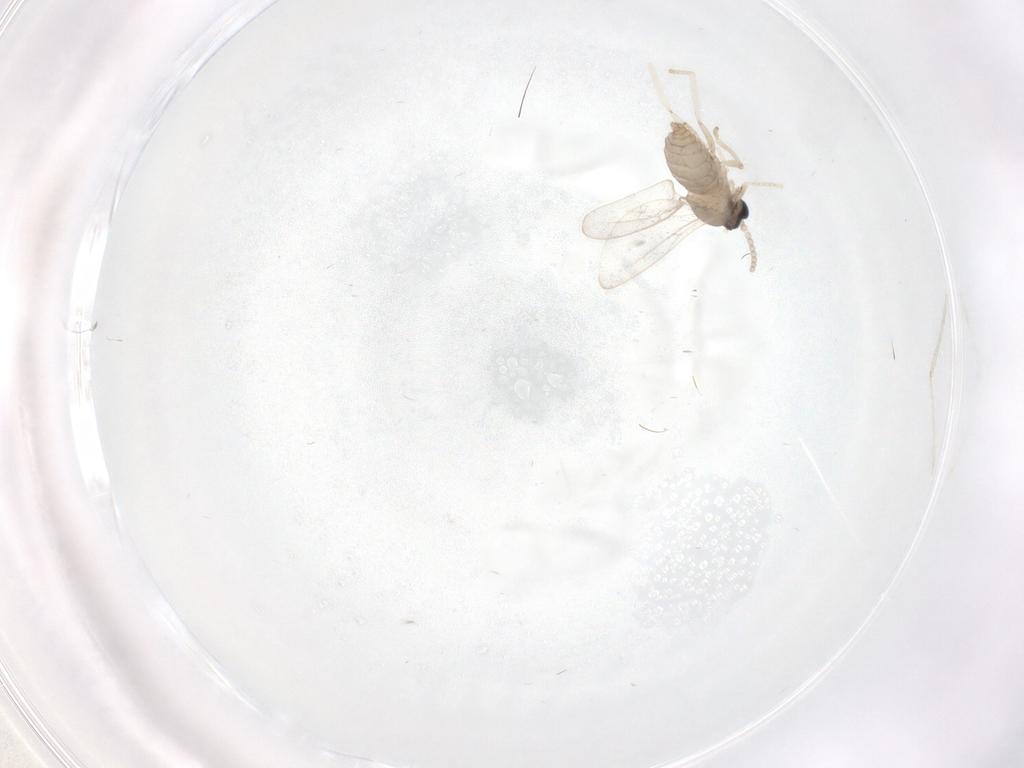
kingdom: Animalia
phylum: Arthropoda
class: Insecta
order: Diptera
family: Cecidomyiidae
